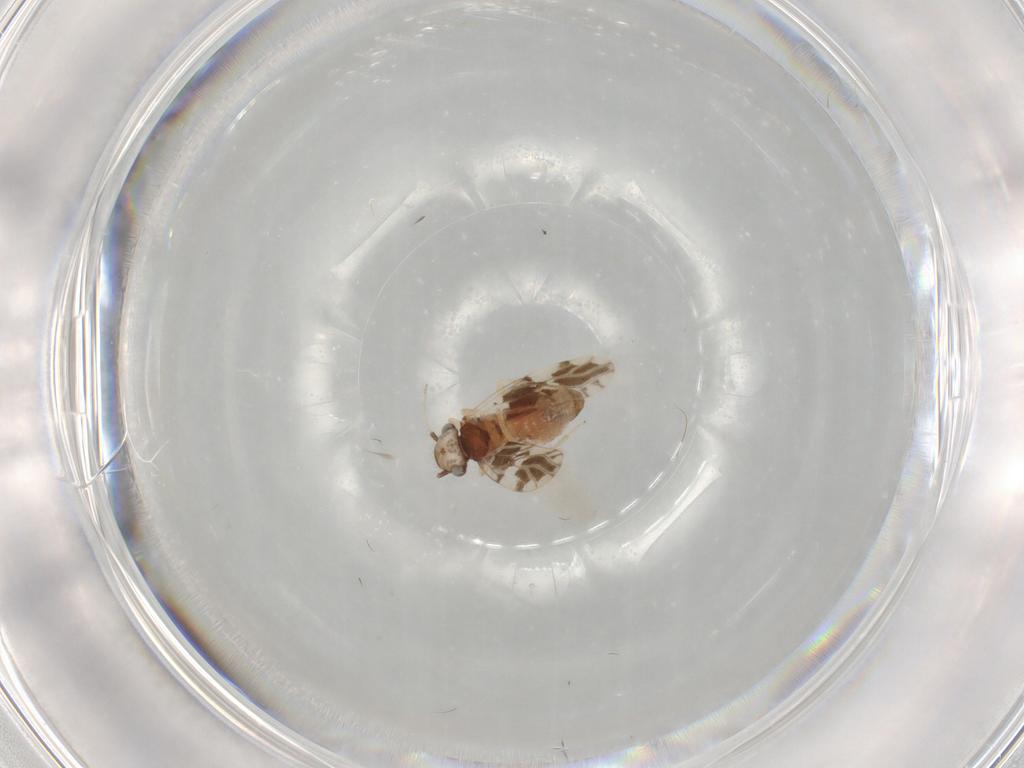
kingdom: Animalia
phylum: Arthropoda
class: Insecta
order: Psocodea
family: Ectopsocidae
